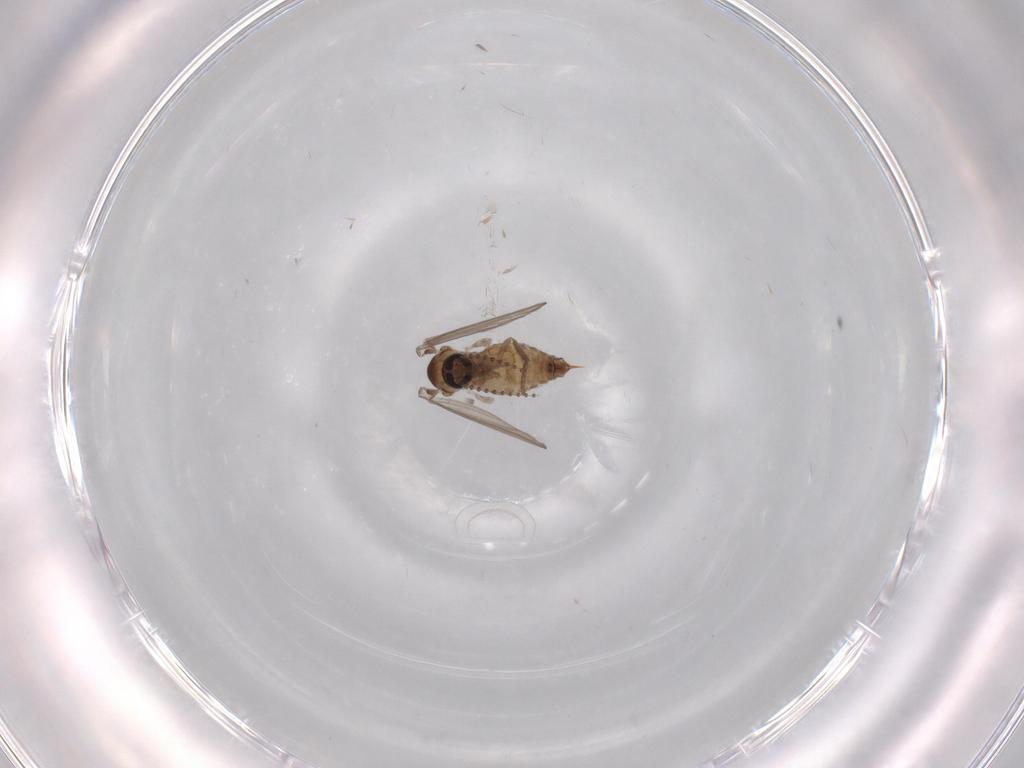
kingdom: Animalia
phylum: Arthropoda
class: Insecta
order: Diptera
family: Psychodidae
